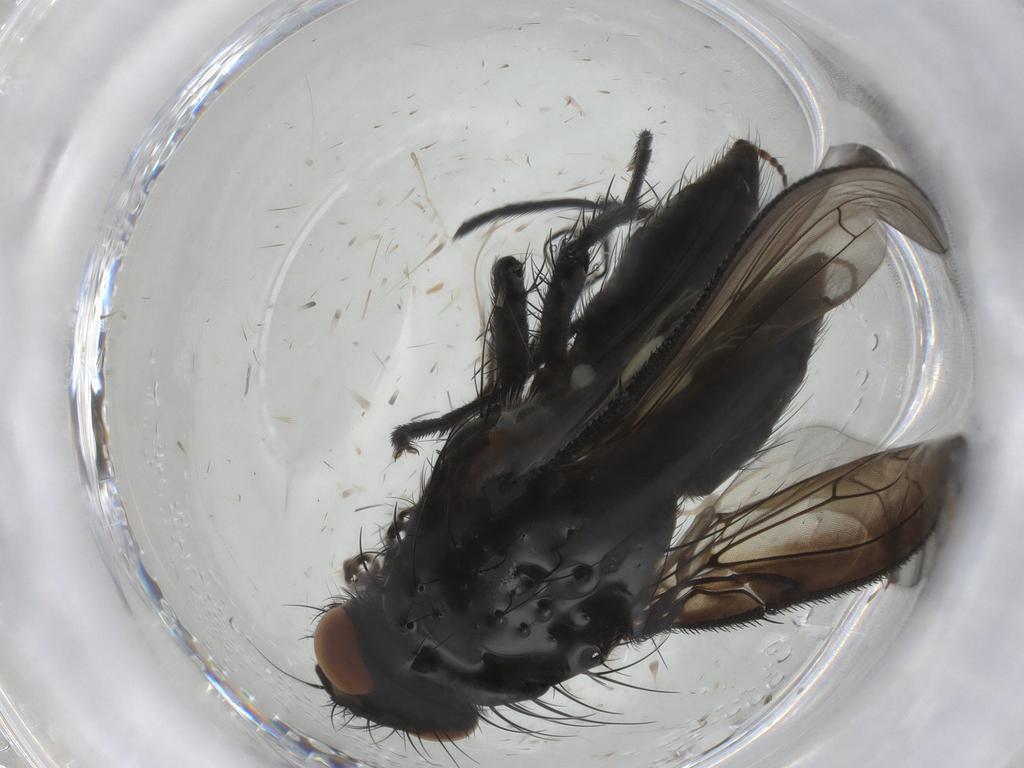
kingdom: Animalia
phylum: Arthropoda
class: Insecta
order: Diptera
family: Anthomyiidae
